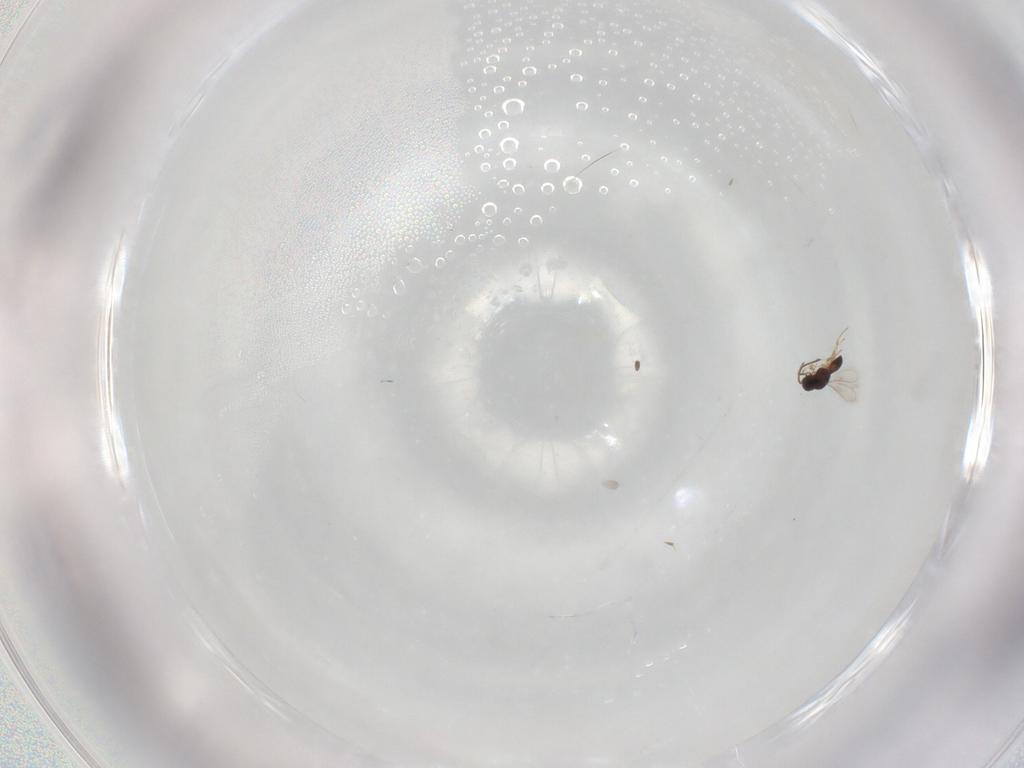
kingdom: Animalia
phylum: Arthropoda
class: Insecta
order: Hymenoptera
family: Scelionidae
